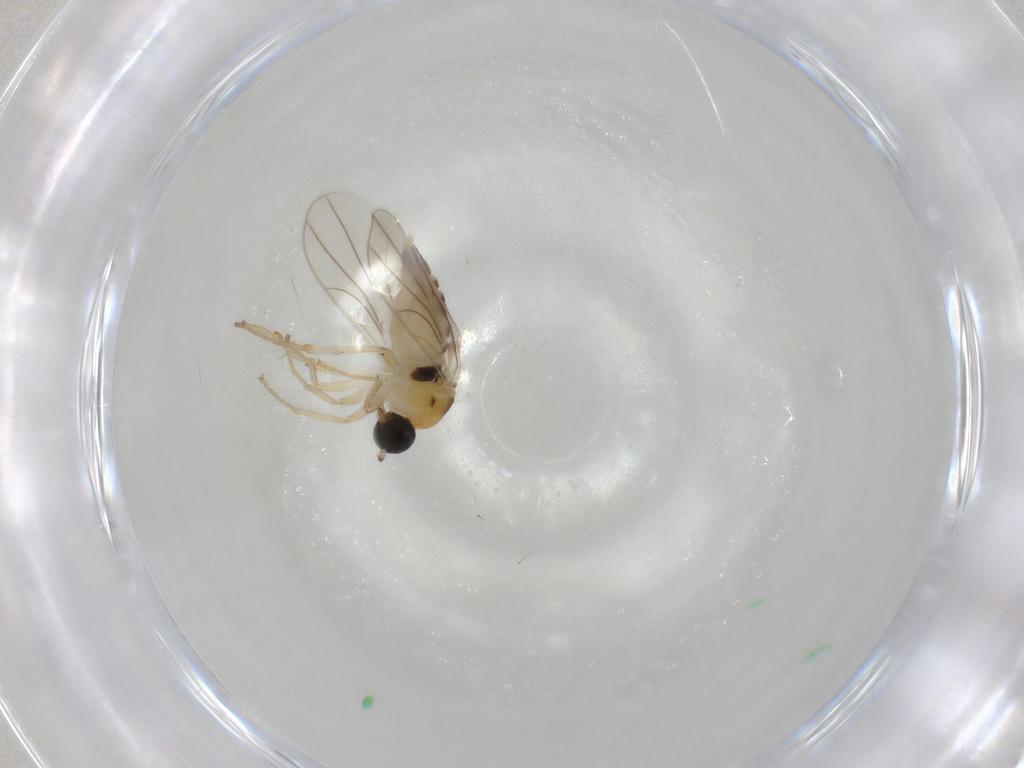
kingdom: Animalia
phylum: Arthropoda
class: Insecta
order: Diptera
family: Hybotidae
